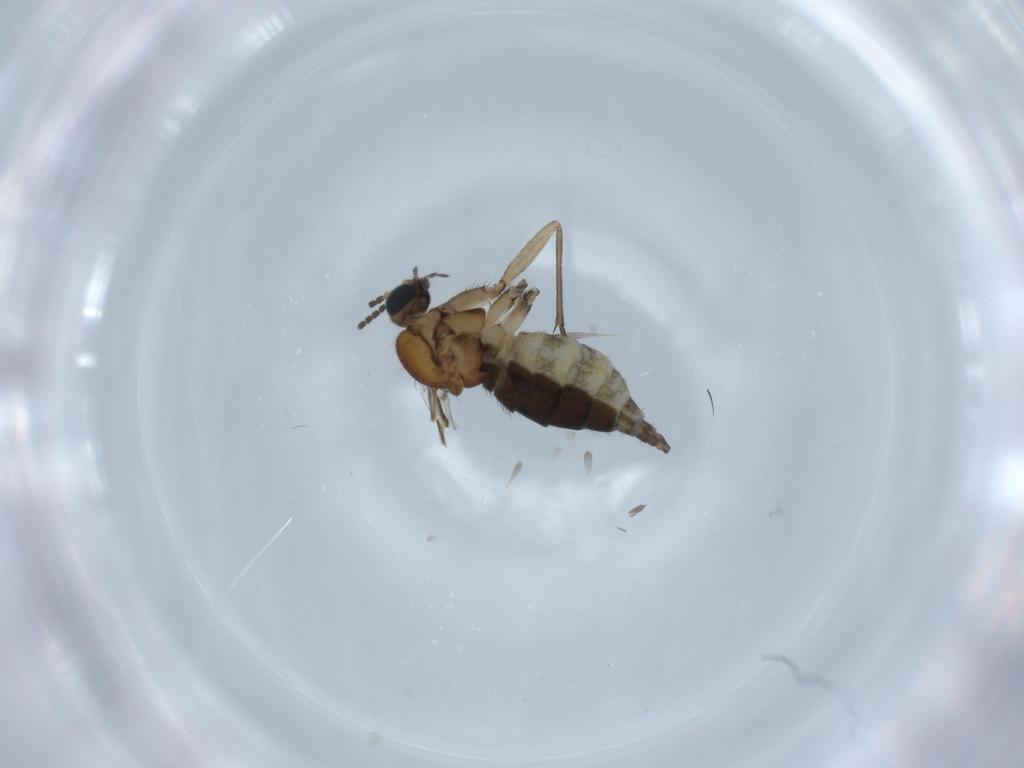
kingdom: Animalia
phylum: Arthropoda
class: Insecta
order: Diptera
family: Sciaridae
